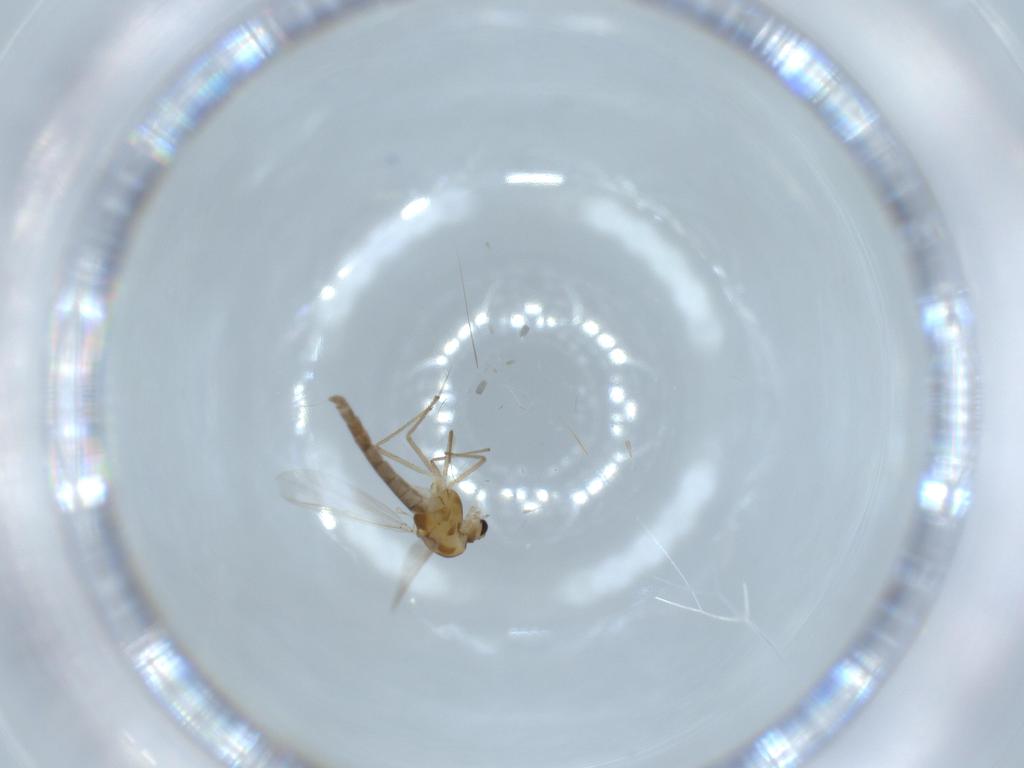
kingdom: Animalia
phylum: Arthropoda
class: Insecta
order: Diptera
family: Chironomidae
